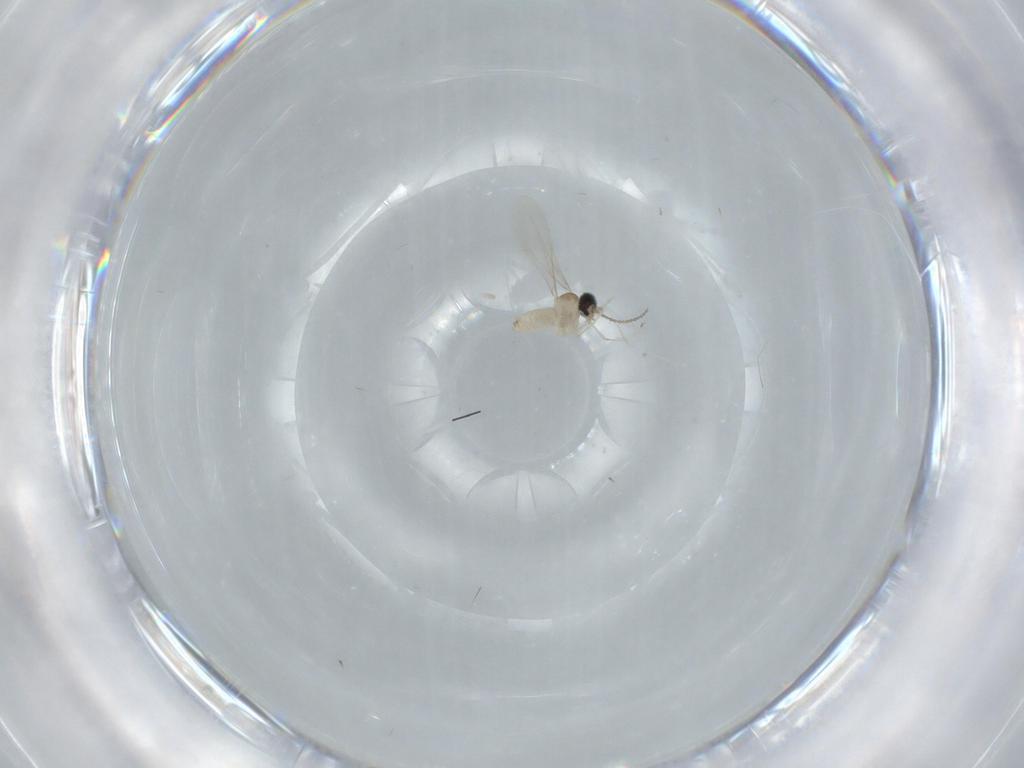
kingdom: Animalia
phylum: Arthropoda
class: Insecta
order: Diptera
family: Cecidomyiidae
